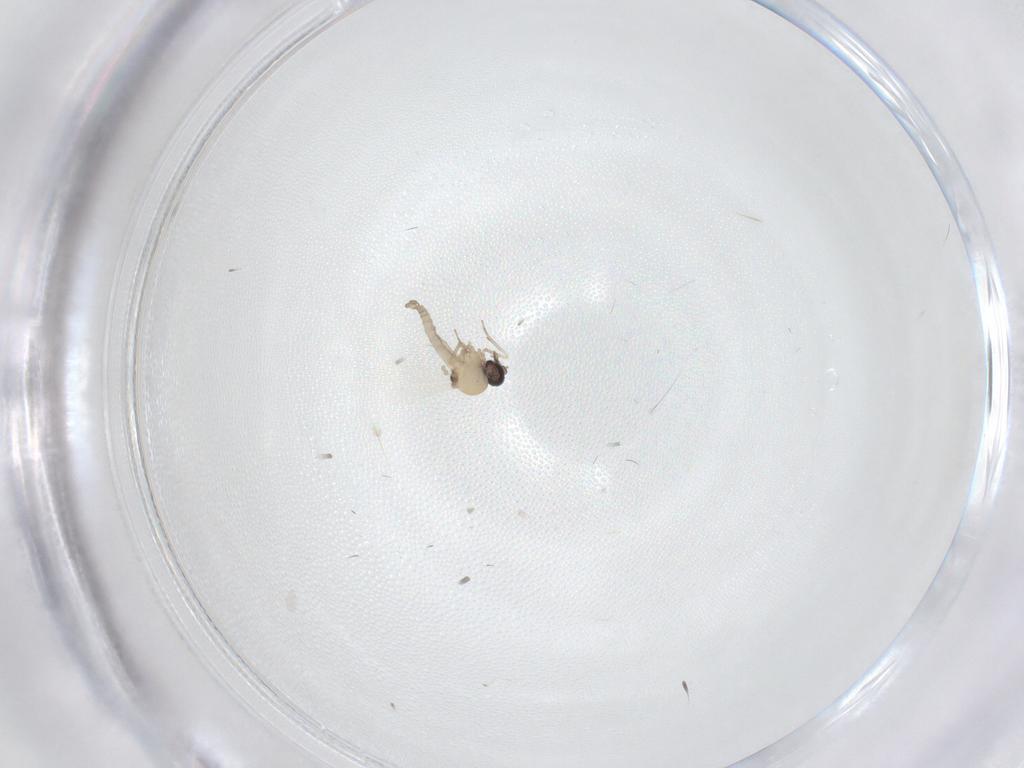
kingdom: Animalia
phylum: Arthropoda
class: Insecta
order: Diptera
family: Ceratopogonidae
